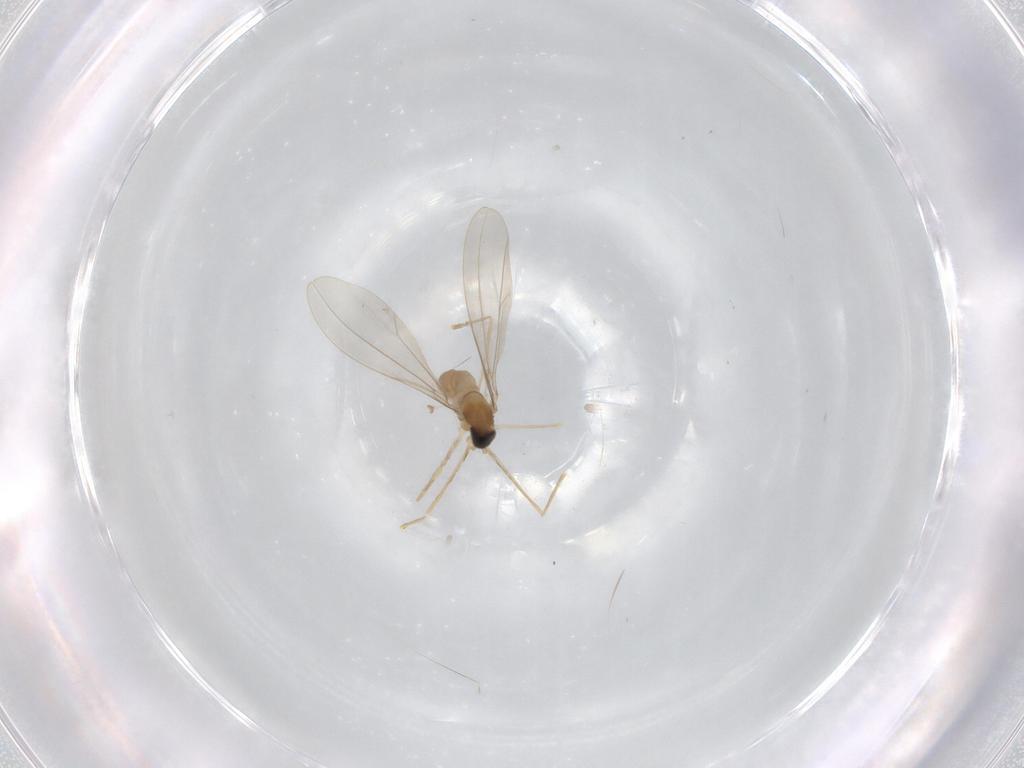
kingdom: Animalia
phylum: Arthropoda
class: Insecta
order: Diptera
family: Cecidomyiidae
